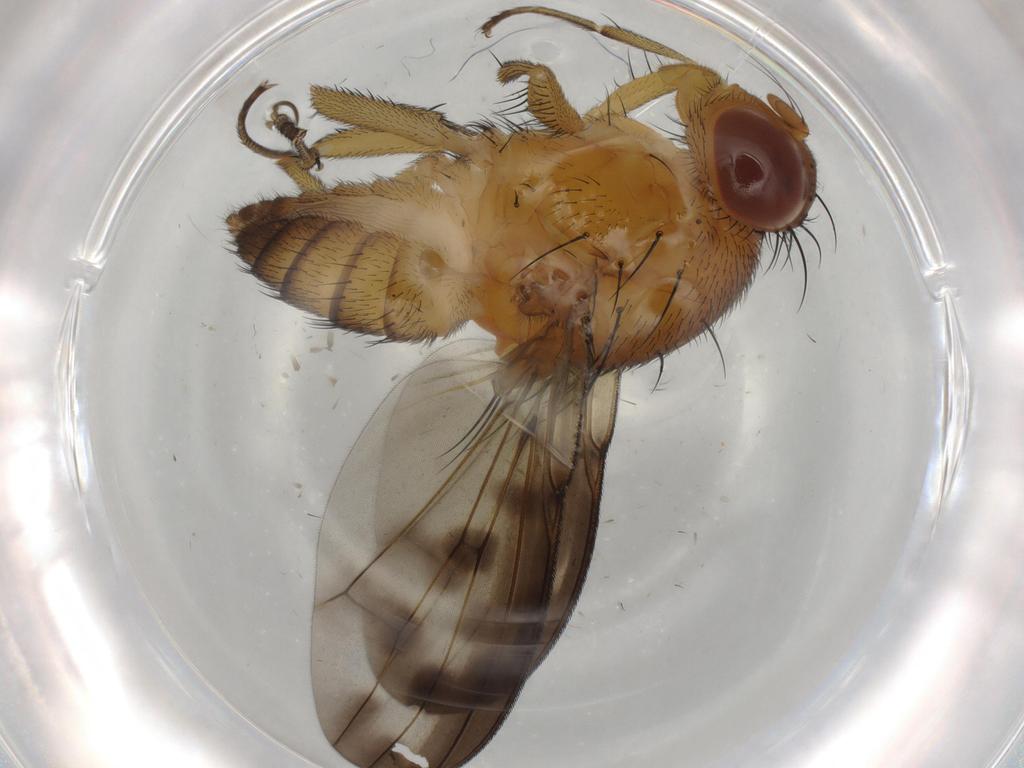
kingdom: Animalia
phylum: Arthropoda
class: Insecta
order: Diptera
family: Cecidomyiidae
